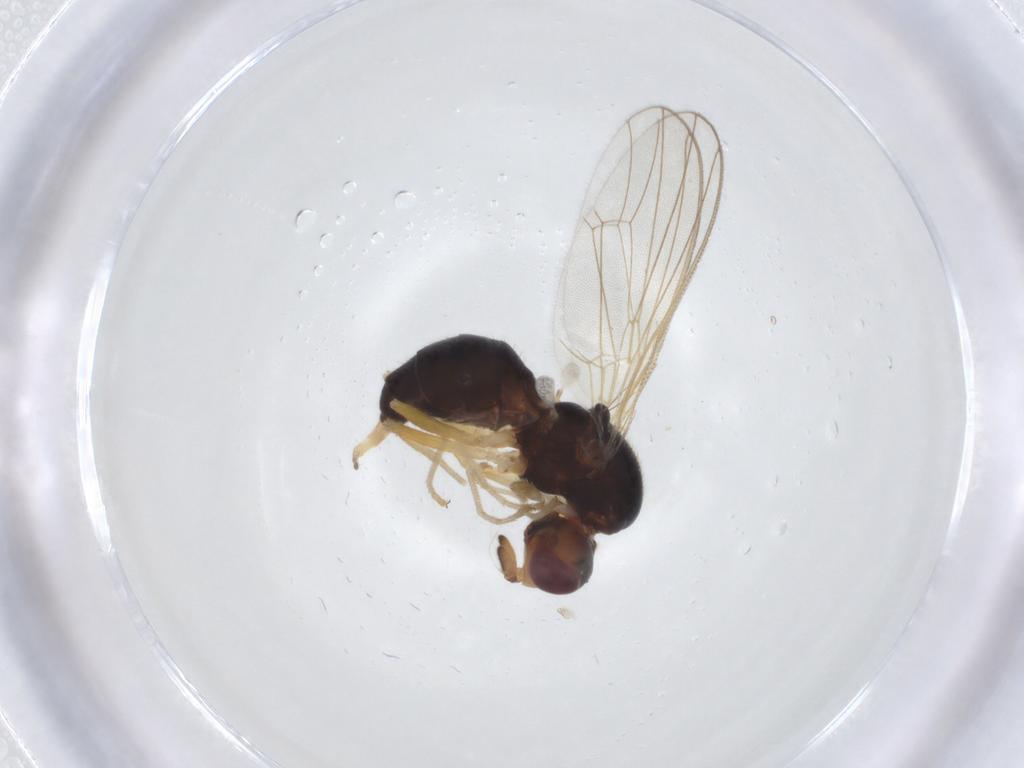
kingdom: Animalia
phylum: Arthropoda
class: Insecta
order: Diptera
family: Psilidae
